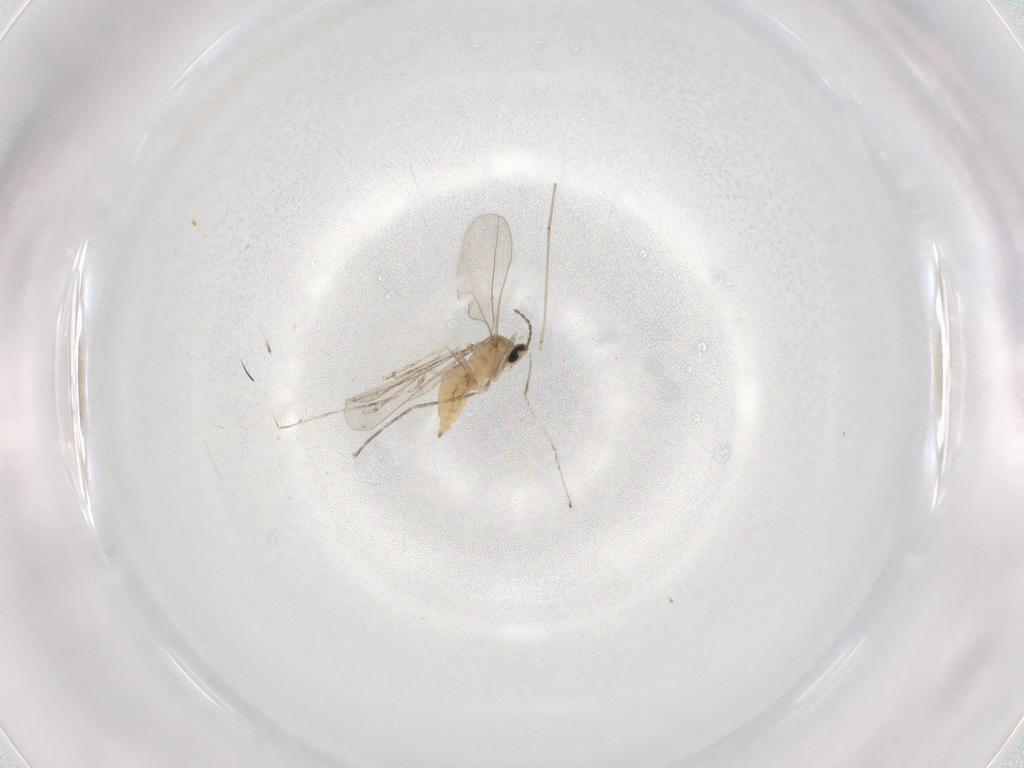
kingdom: Animalia
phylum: Arthropoda
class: Insecta
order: Diptera
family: Cecidomyiidae
